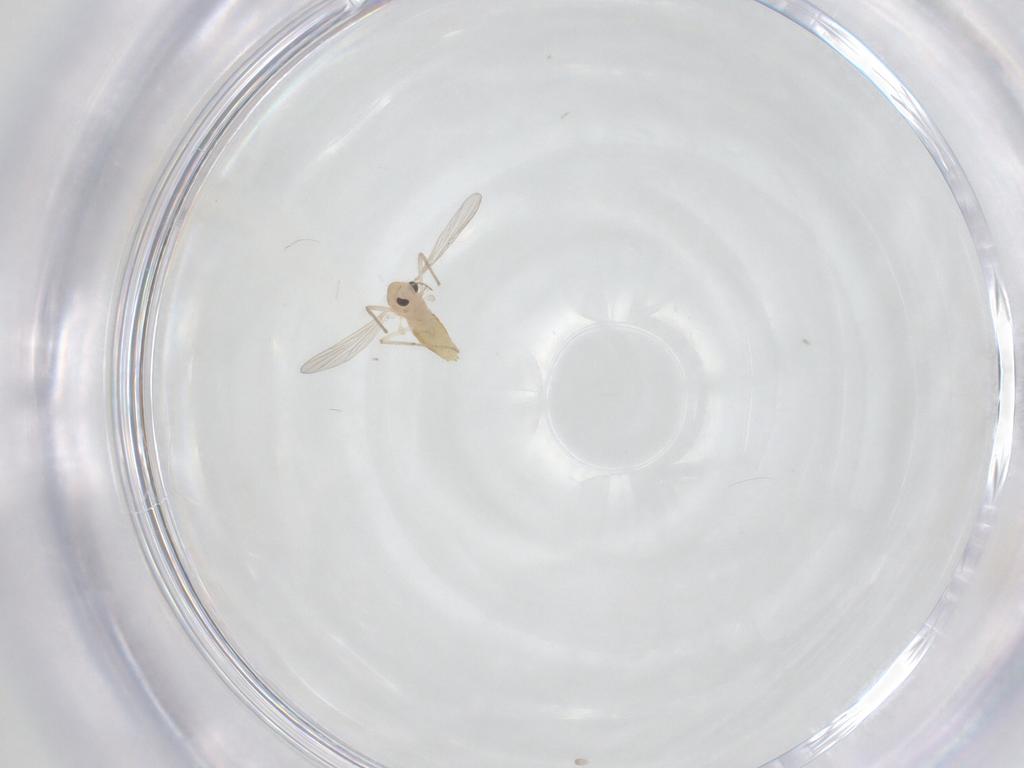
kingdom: Animalia
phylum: Arthropoda
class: Insecta
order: Diptera
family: Chironomidae
